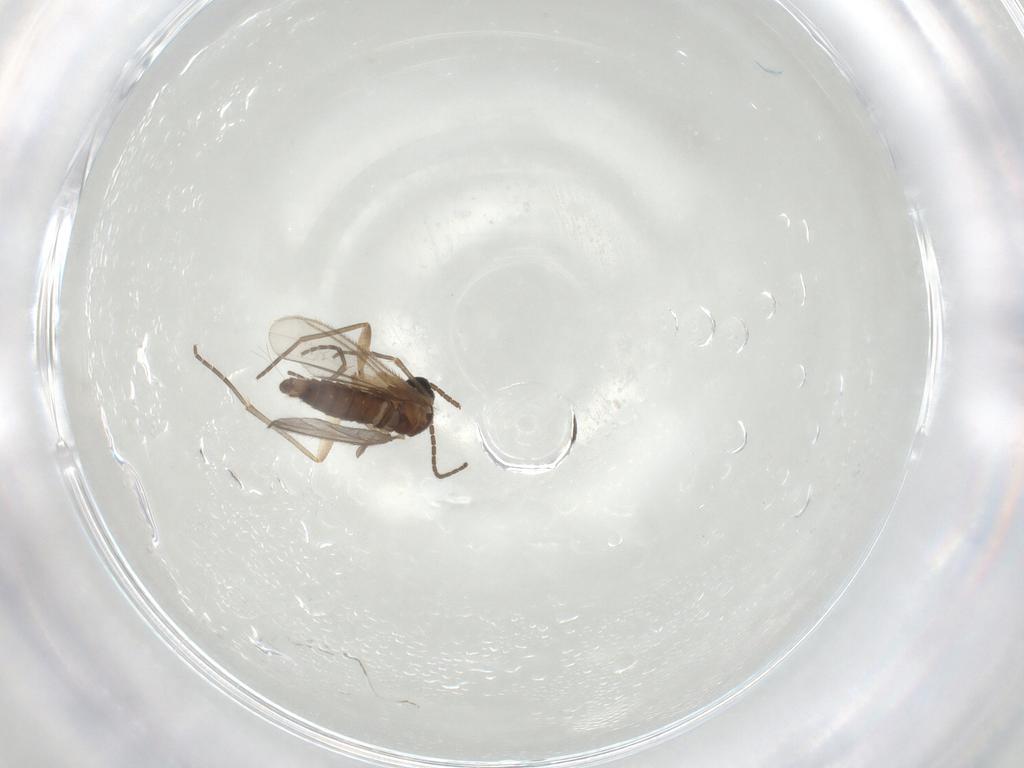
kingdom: Animalia
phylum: Arthropoda
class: Insecta
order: Diptera
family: Sciaridae
